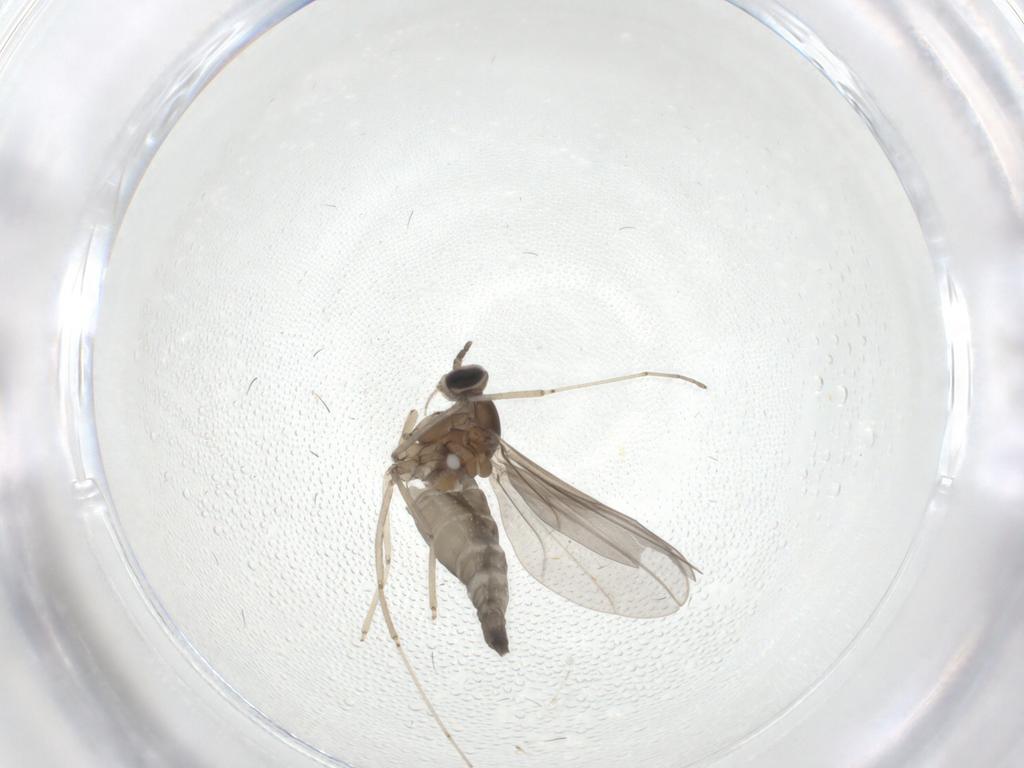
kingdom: Animalia
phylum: Arthropoda
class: Insecta
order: Diptera
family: Cecidomyiidae
